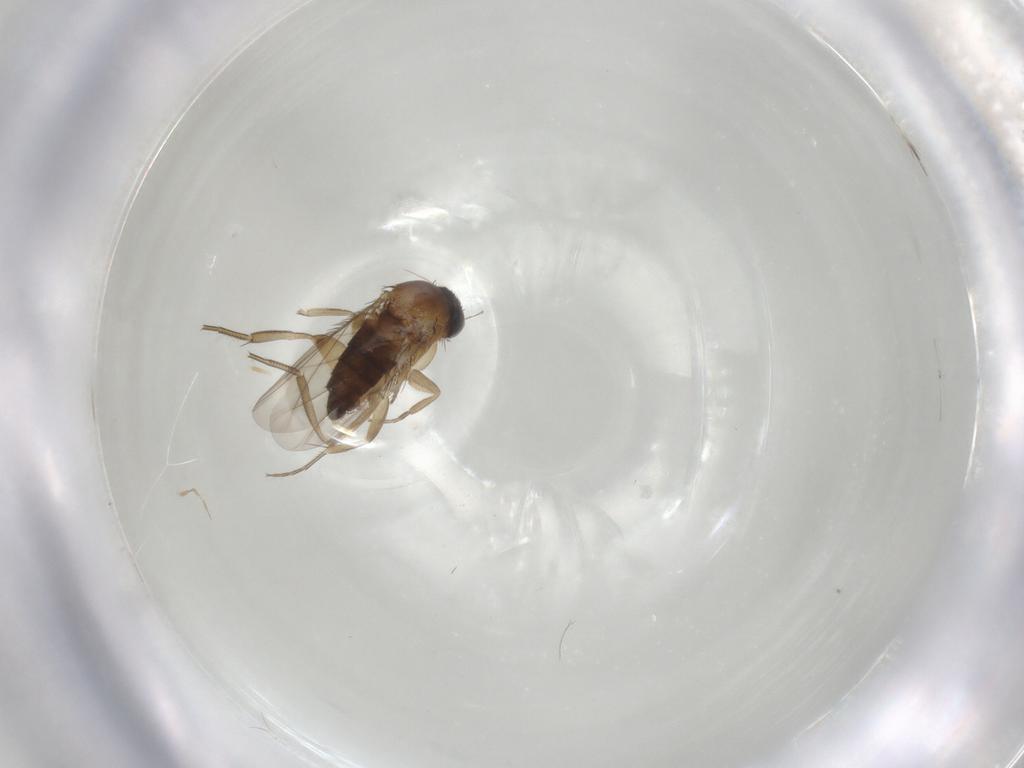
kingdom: Animalia
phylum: Arthropoda
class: Insecta
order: Diptera
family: Phoridae
